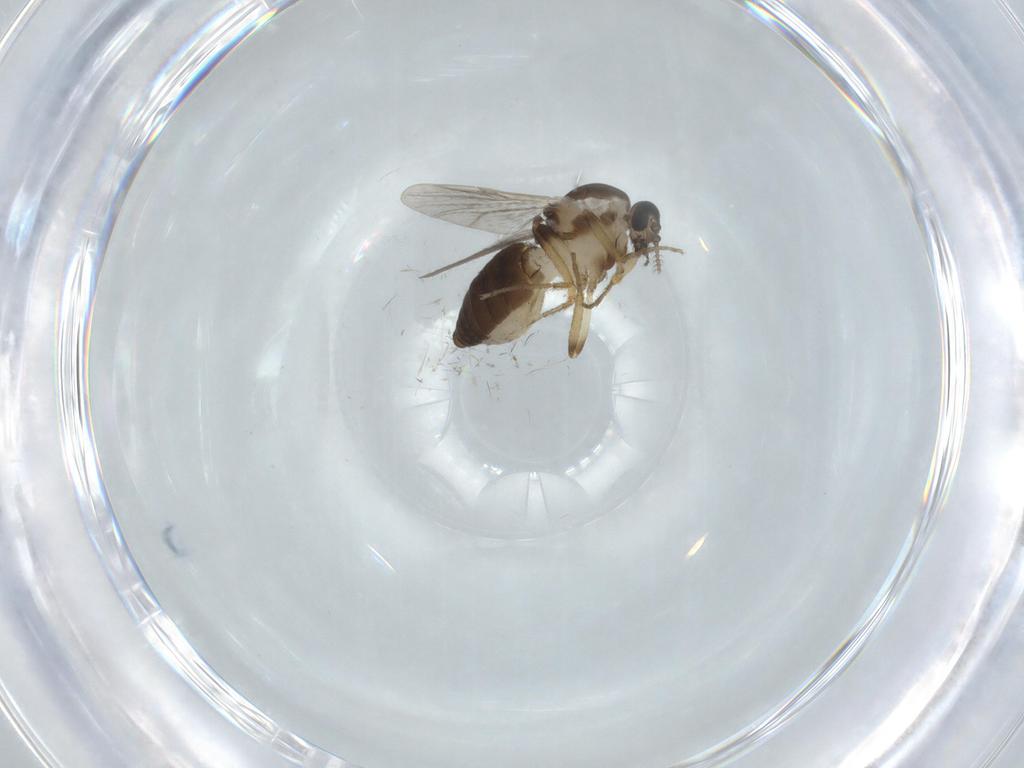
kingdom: Animalia
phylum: Arthropoda
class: Insecta
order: Diptera
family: Ceratopogonidae
